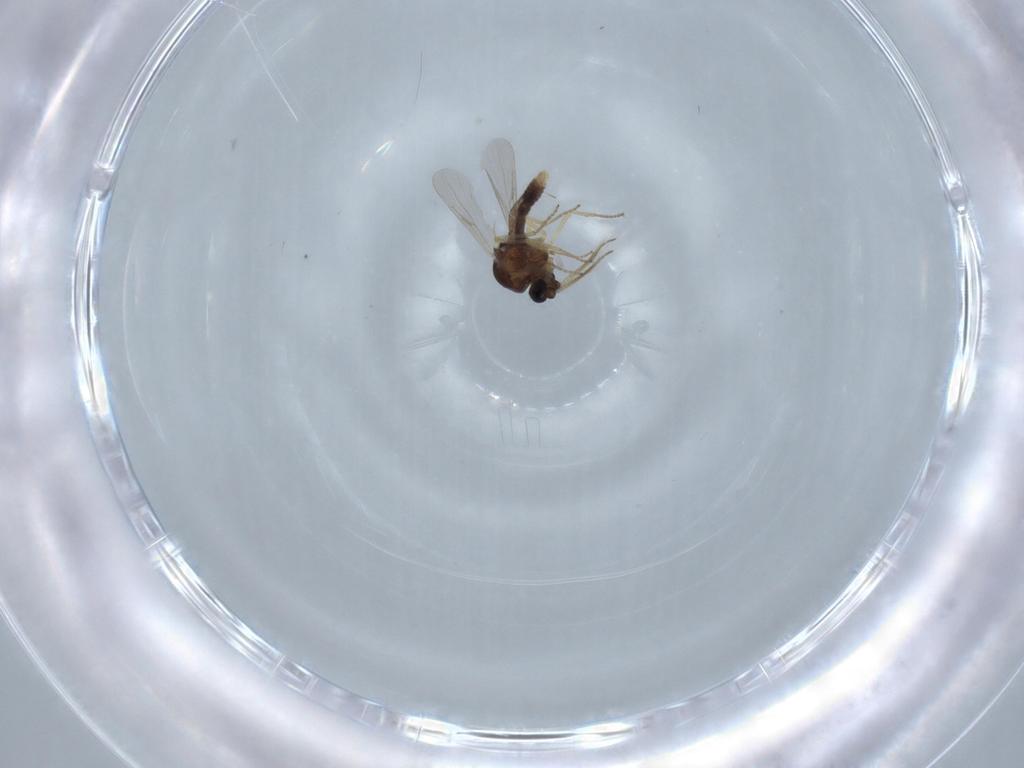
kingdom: Animalia
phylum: Arthropoda
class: Insecta
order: Diptera
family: Ceratopogonidae
